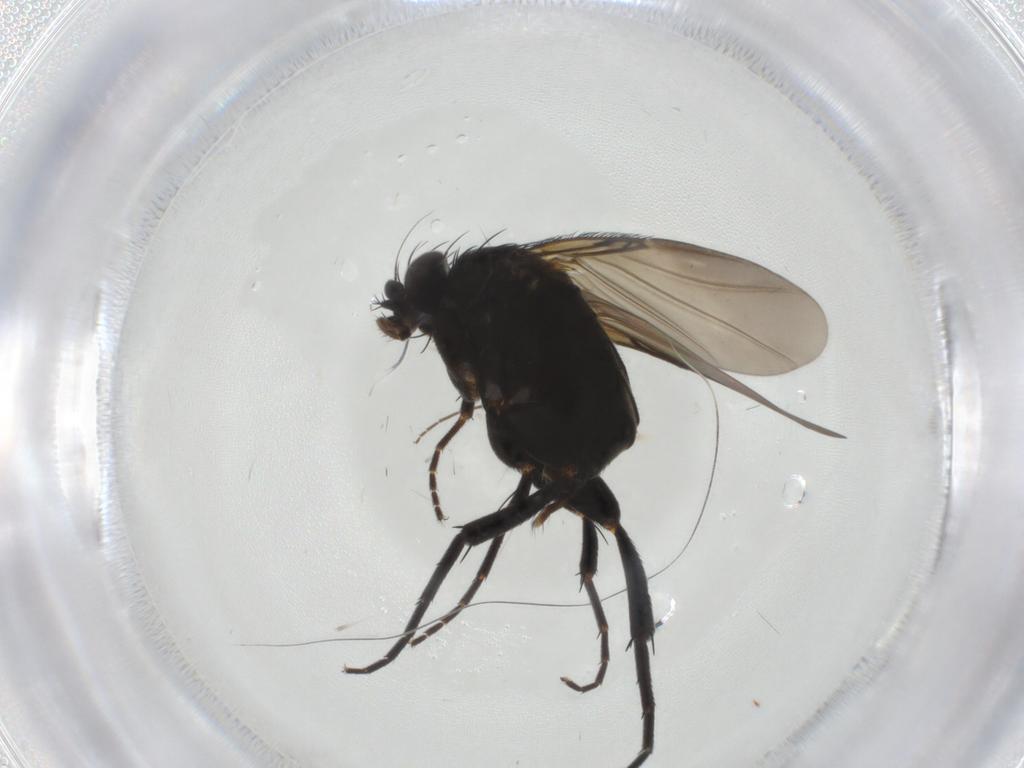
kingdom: Animalia
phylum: Arthropoda
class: Insecta
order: Diptera
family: Phoridae
